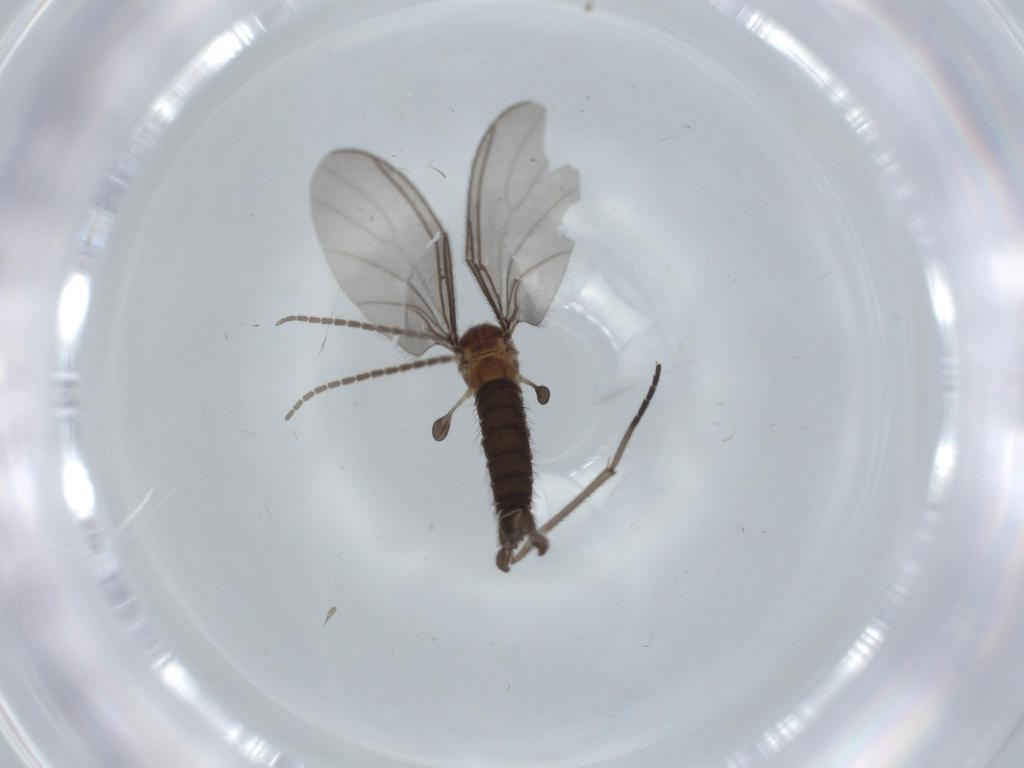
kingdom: Animalia
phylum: Arthropoda
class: Insecta
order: Diptera
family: Sciaridae
